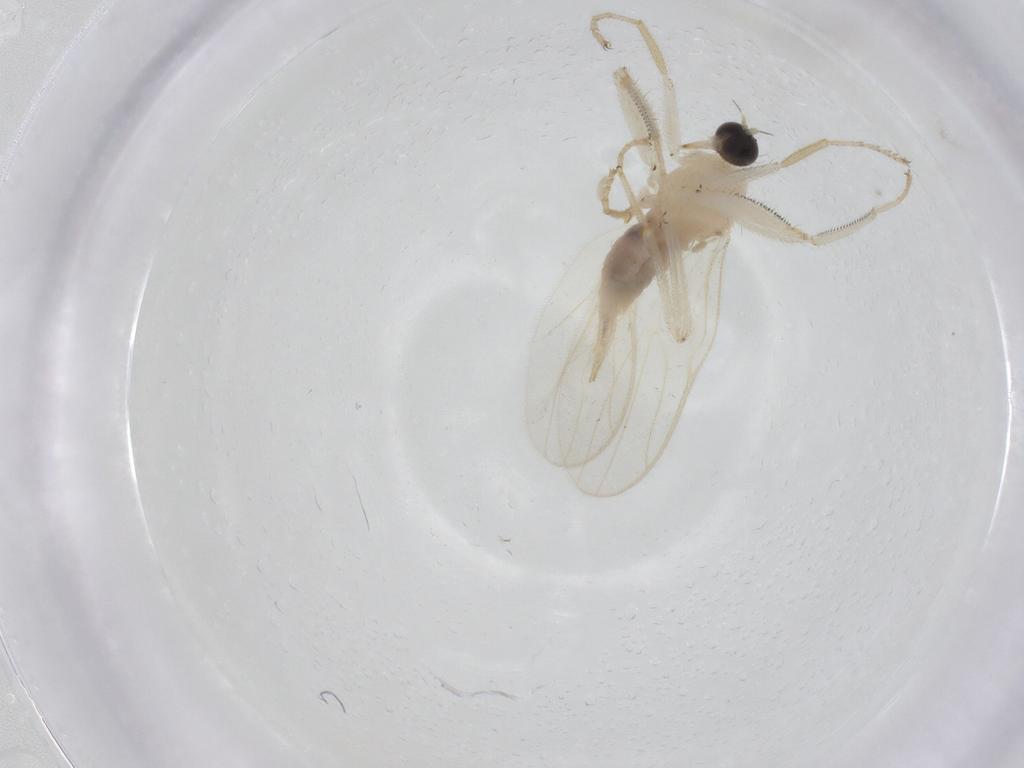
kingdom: Animalia
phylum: Arthropoda
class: Insecta
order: Diptera
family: Hybotidae
